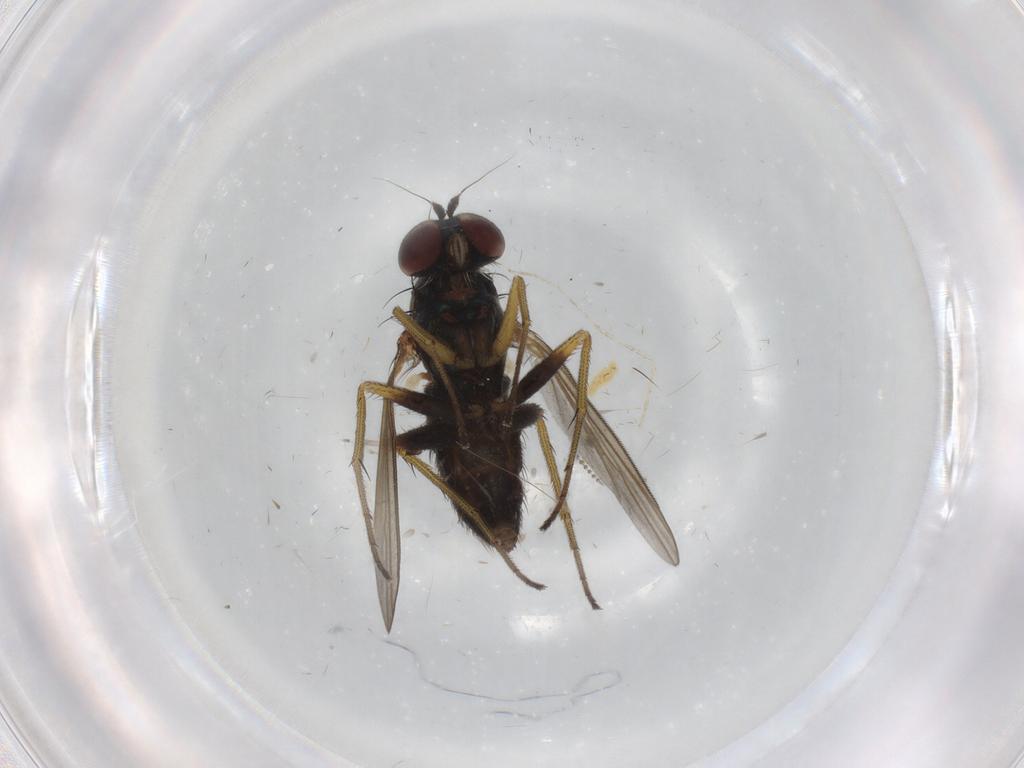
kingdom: Animalia
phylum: Arthropoda
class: Insecta
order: Diptera
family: Dolichopodidae
